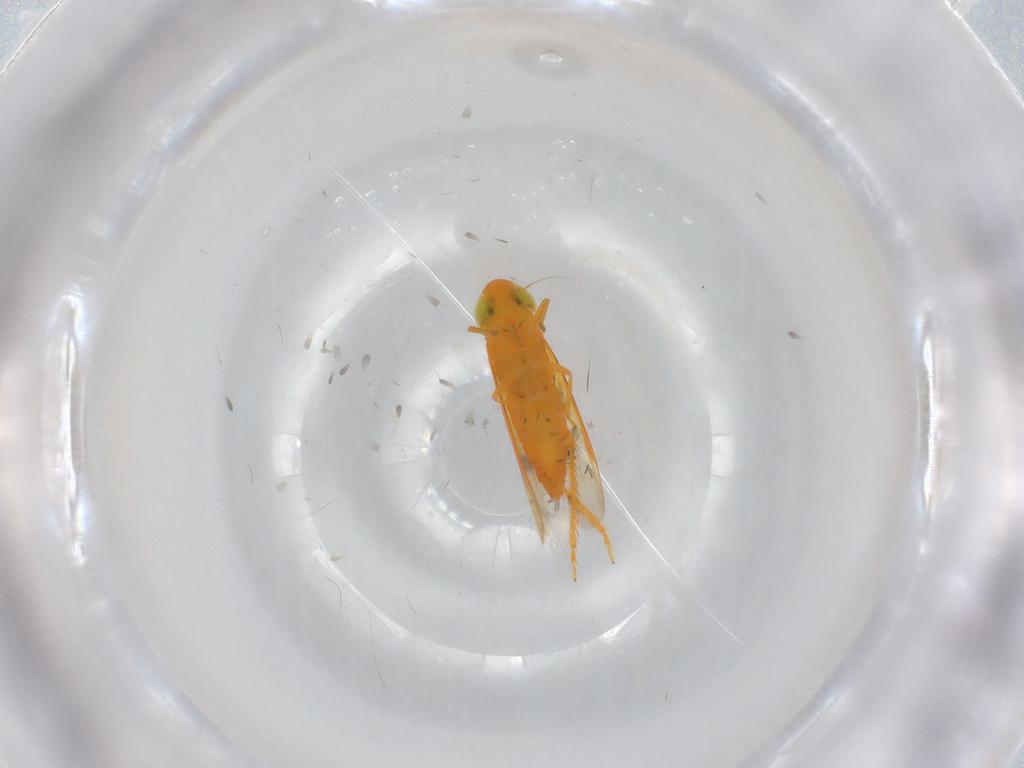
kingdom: Animalia
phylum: Arthropoda
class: Insecta
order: Hemiptera
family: Cicadellidae
